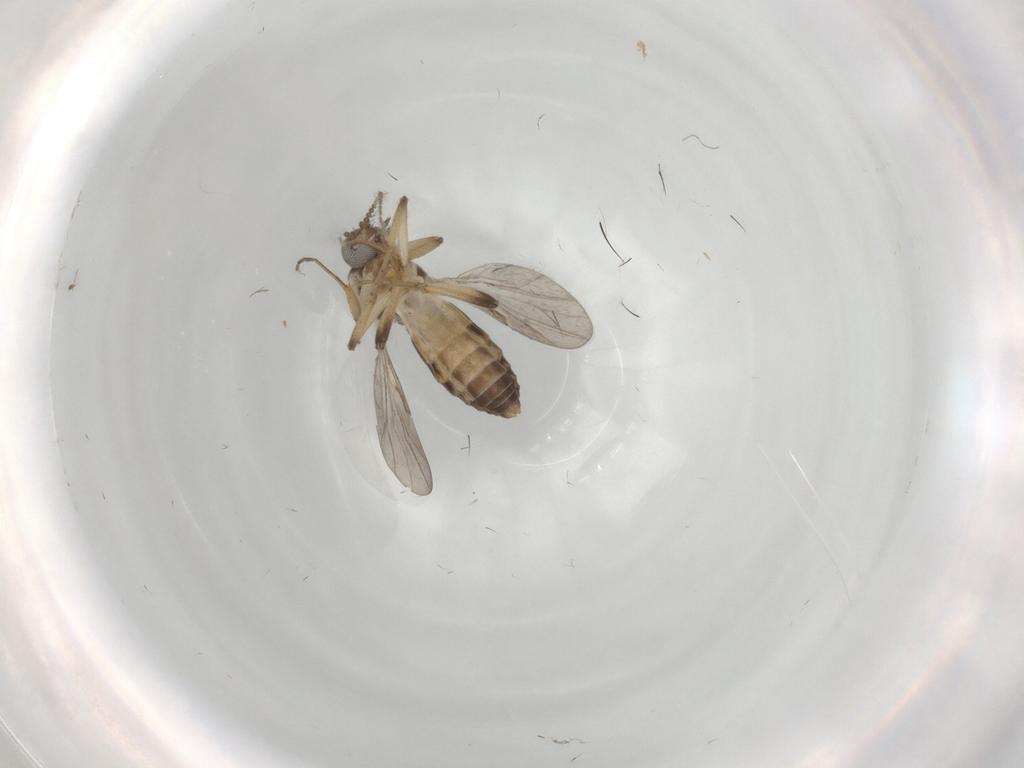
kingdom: Animalia
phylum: Arthropoda
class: Insecta
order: Diptera
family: Ceratopogonidae
